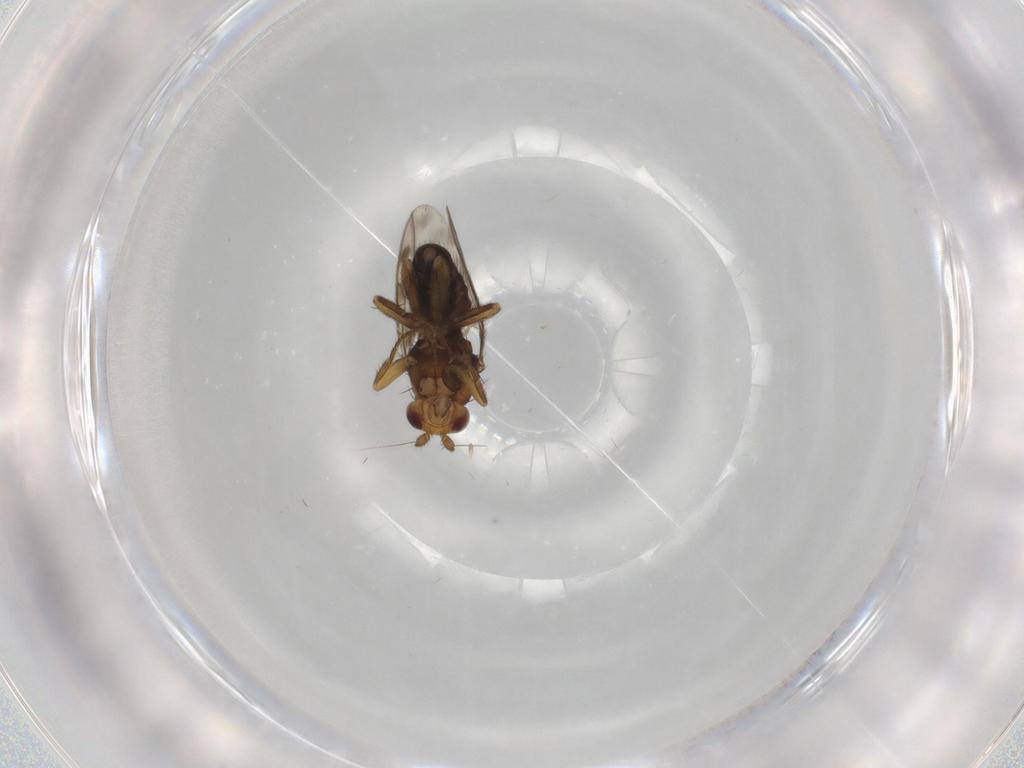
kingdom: Animalia
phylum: Arthropoda
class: Insecta
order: Diptera
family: Sphaeroceridae
